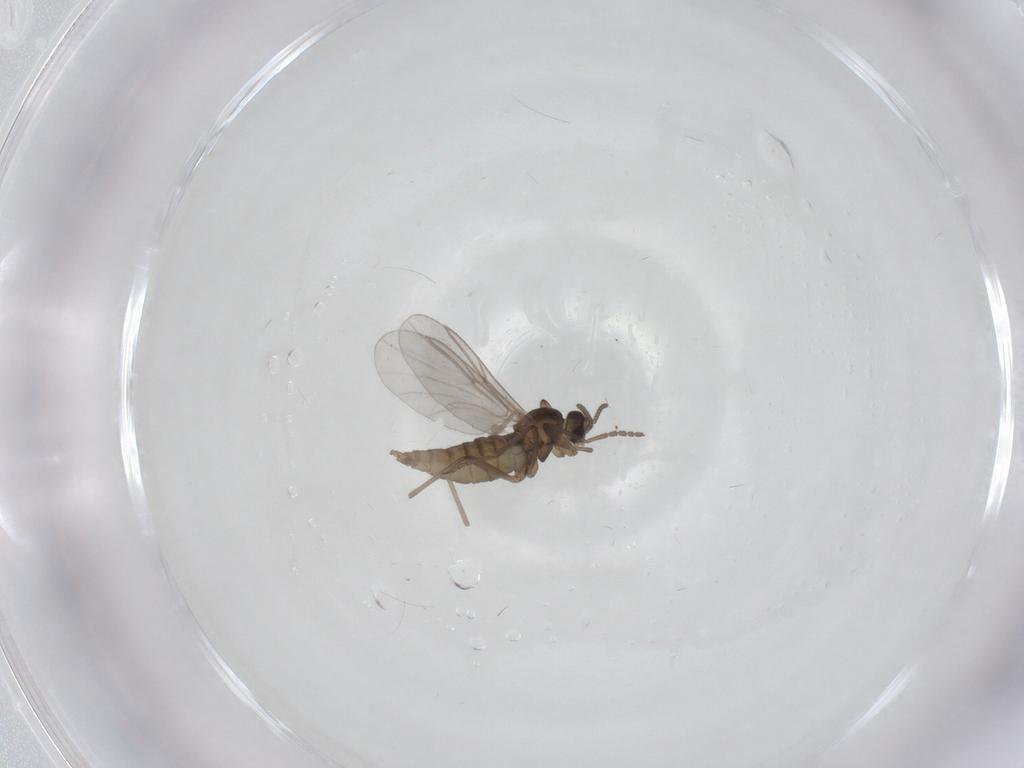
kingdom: Animalia
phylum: Arthropoda
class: Insecta
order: Diptera
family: Cecidomyiidae
